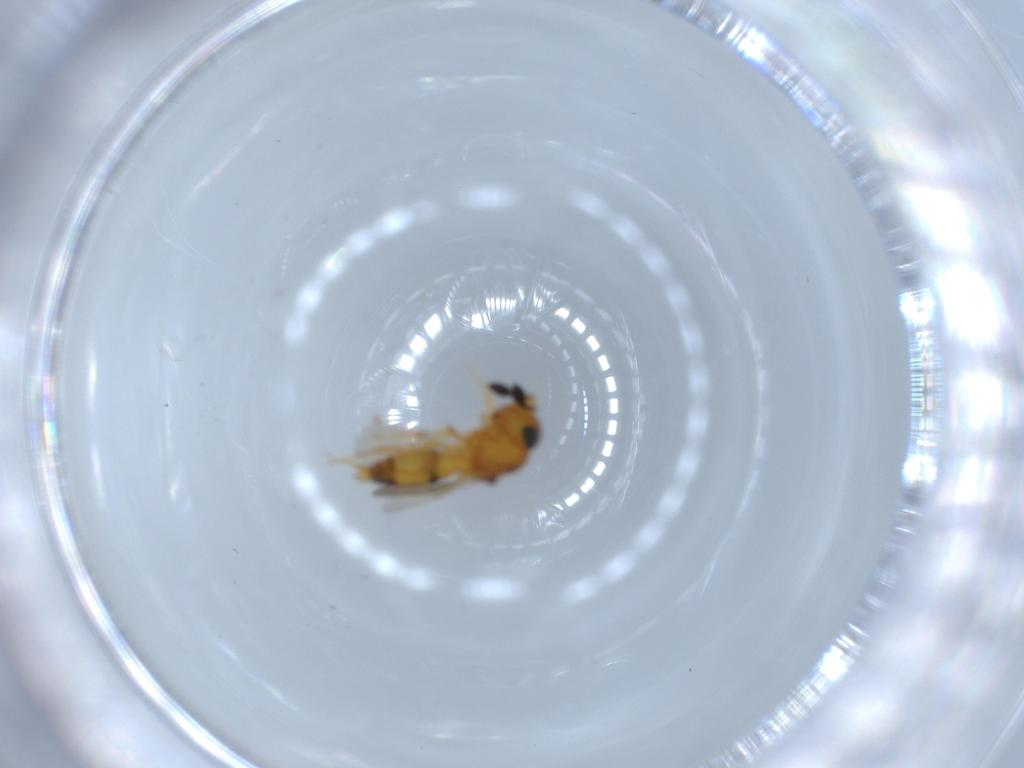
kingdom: Animalia
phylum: Arthropoda
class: Insecta
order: Hymenoptera
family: Scelionidae
